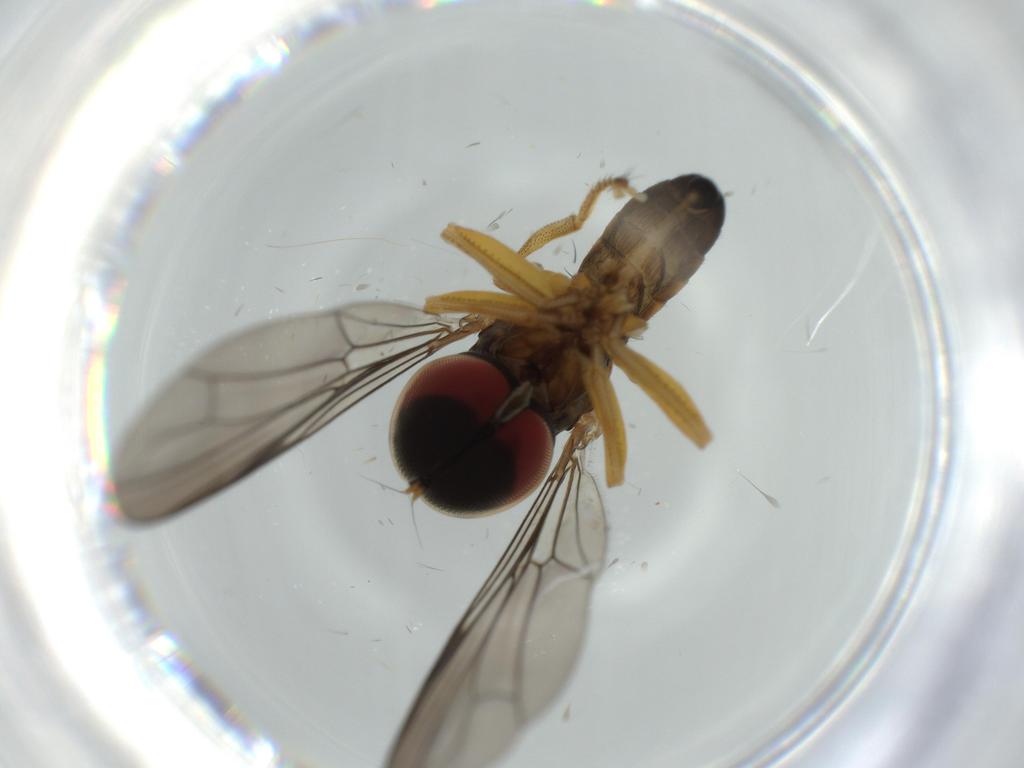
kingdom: Animalia
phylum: Arthropoda
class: Insecta
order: Diptera
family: Pipunculidae
